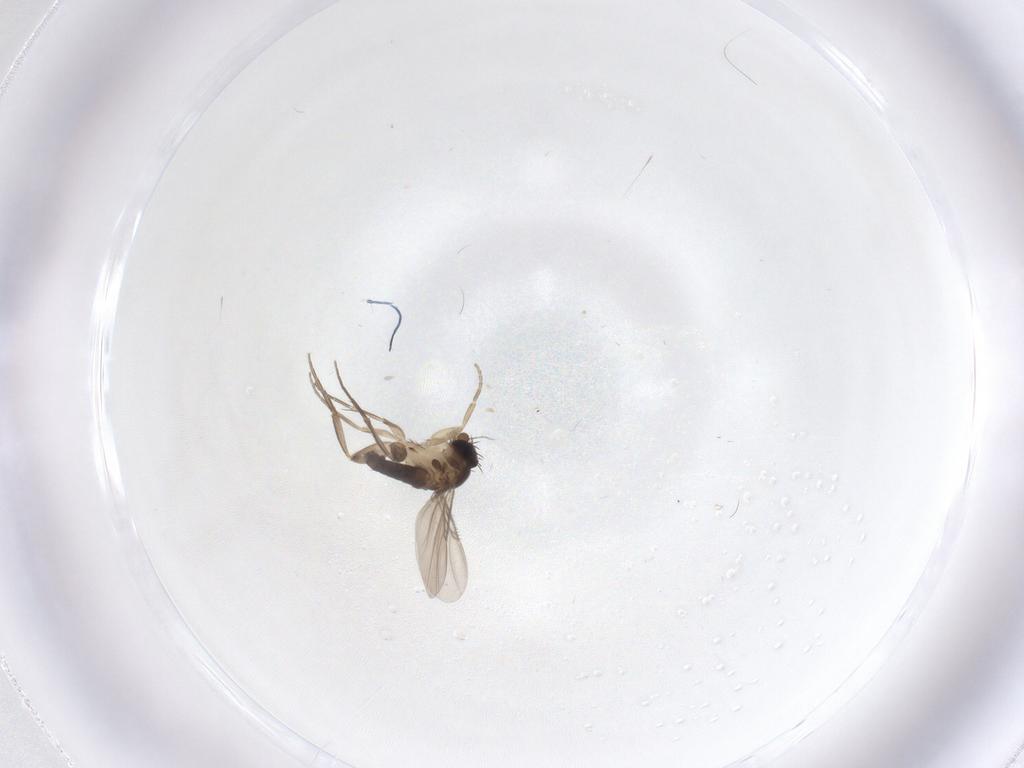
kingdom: Animalia
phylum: Arthropoda
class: Insecta
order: Diptera
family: Phoridae
